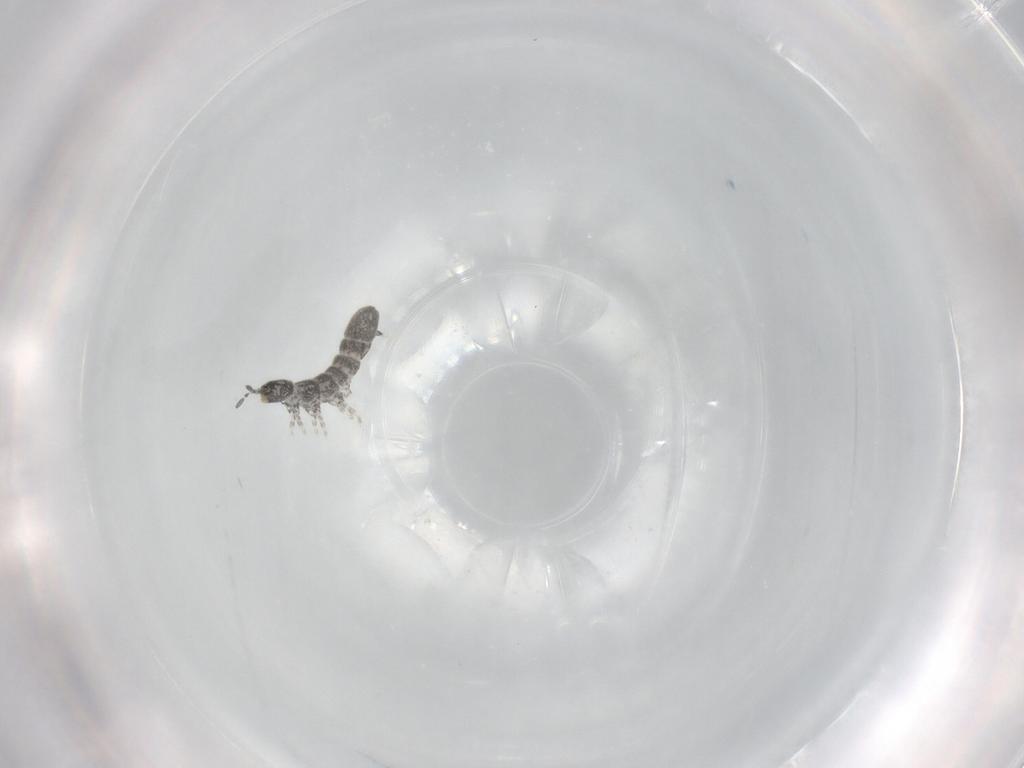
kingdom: Animalia
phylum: Arthropoda
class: Collembola
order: Entomobryomorpha
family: Isotomidae
